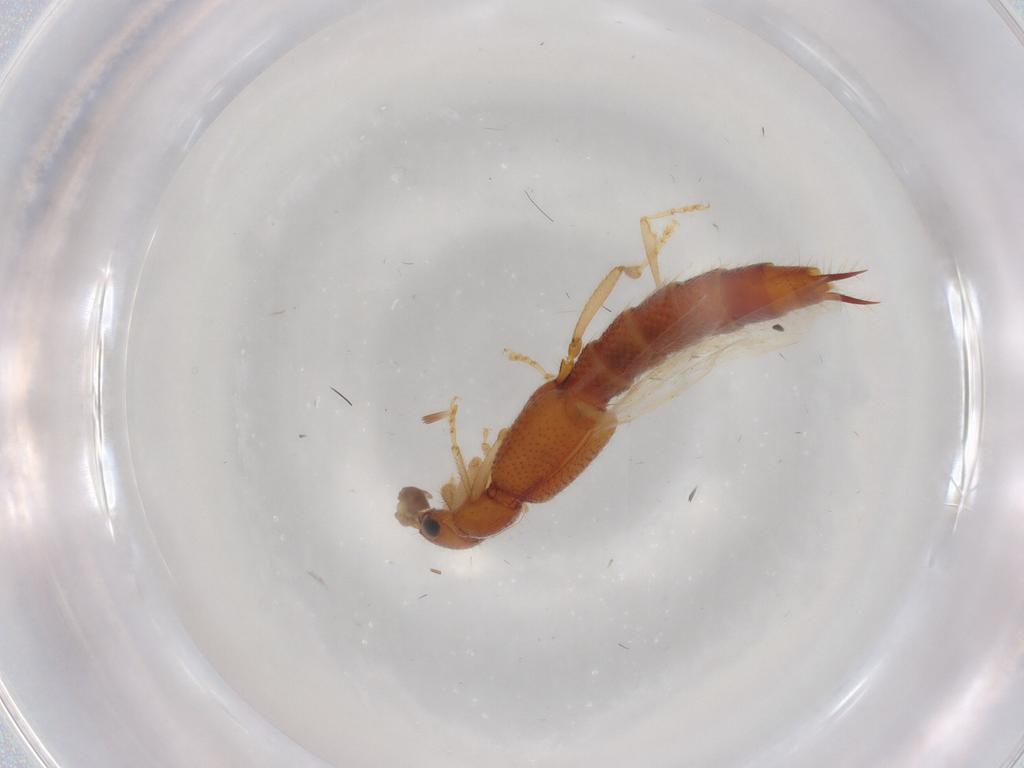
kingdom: Animalia
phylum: Arthropoda
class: Insecta
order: Coleoptera
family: Staphylinidae
